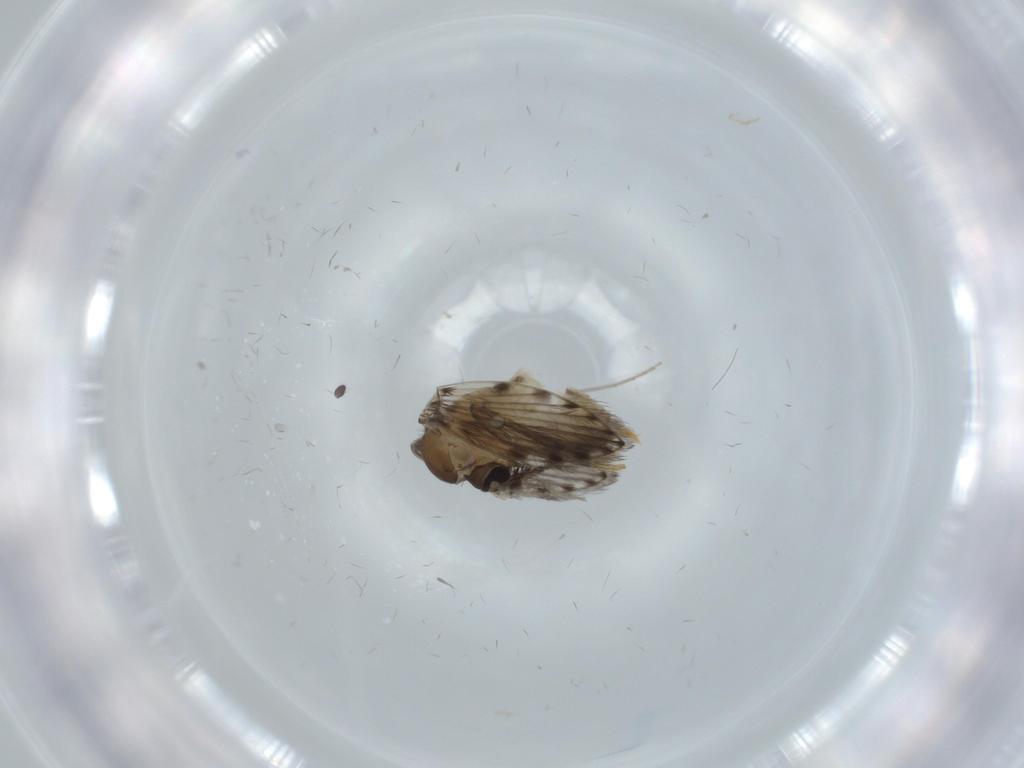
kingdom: Animalia
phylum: Arthropoda
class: Insecta
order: Diptera
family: Psychodidae
